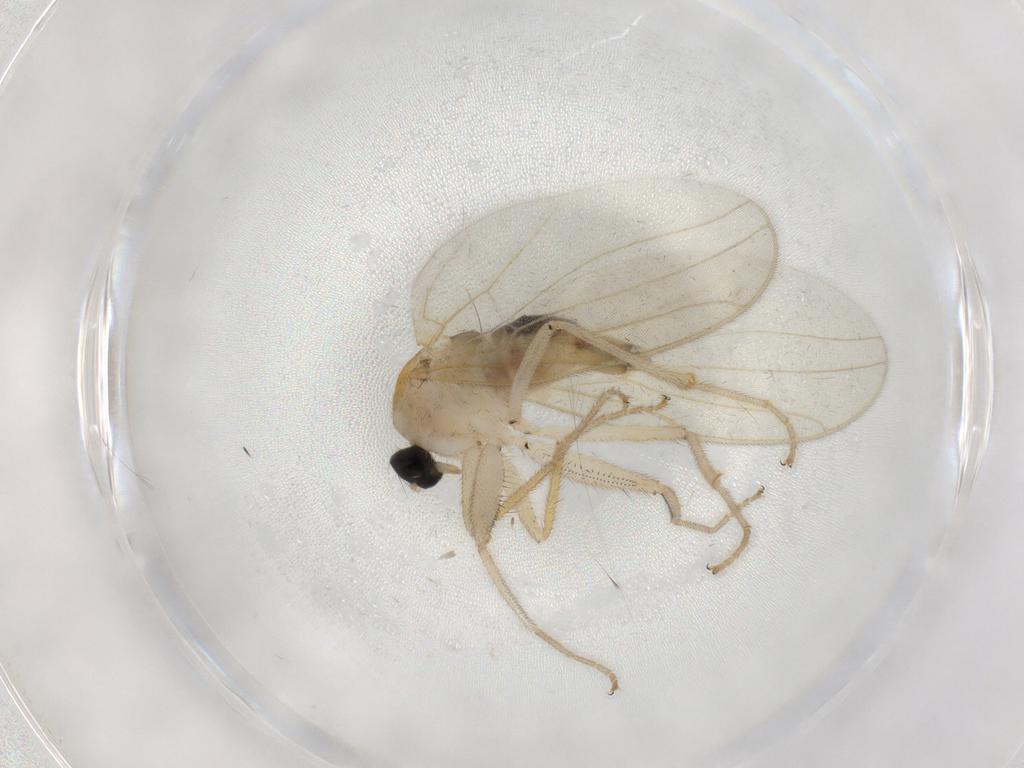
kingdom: Animalia
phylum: Arthropoda
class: Insecta
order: Diptera
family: Hybotidae
